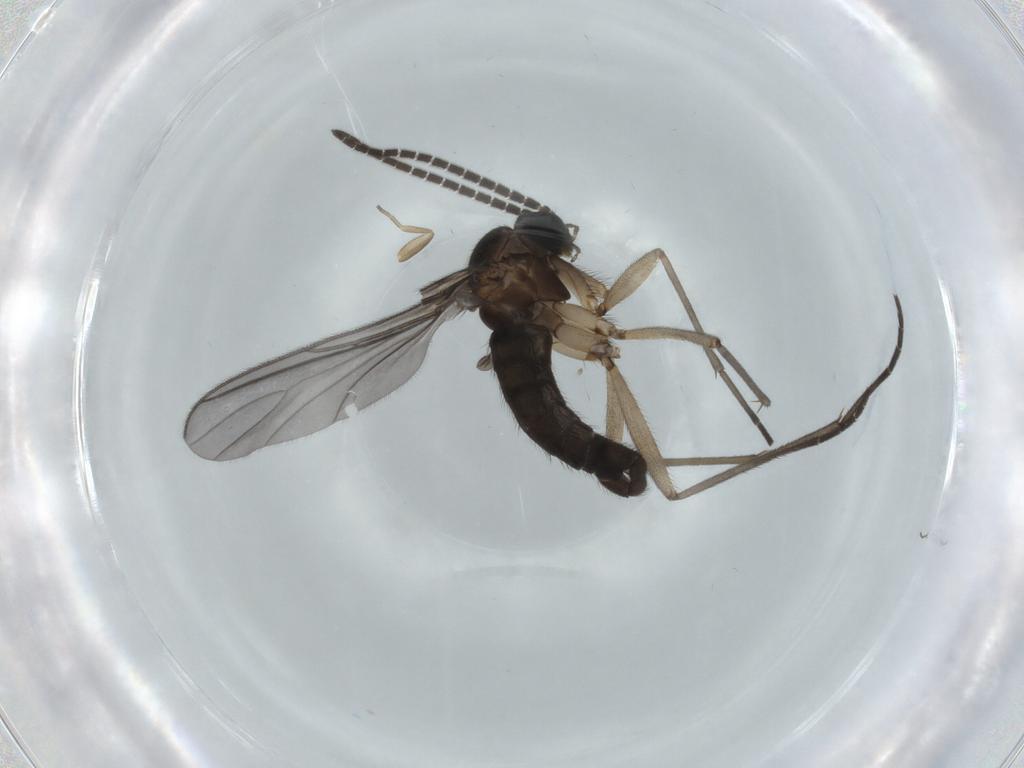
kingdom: Animalia
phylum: Arthropoda
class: Insecta
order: Diptera
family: Sciaridae
